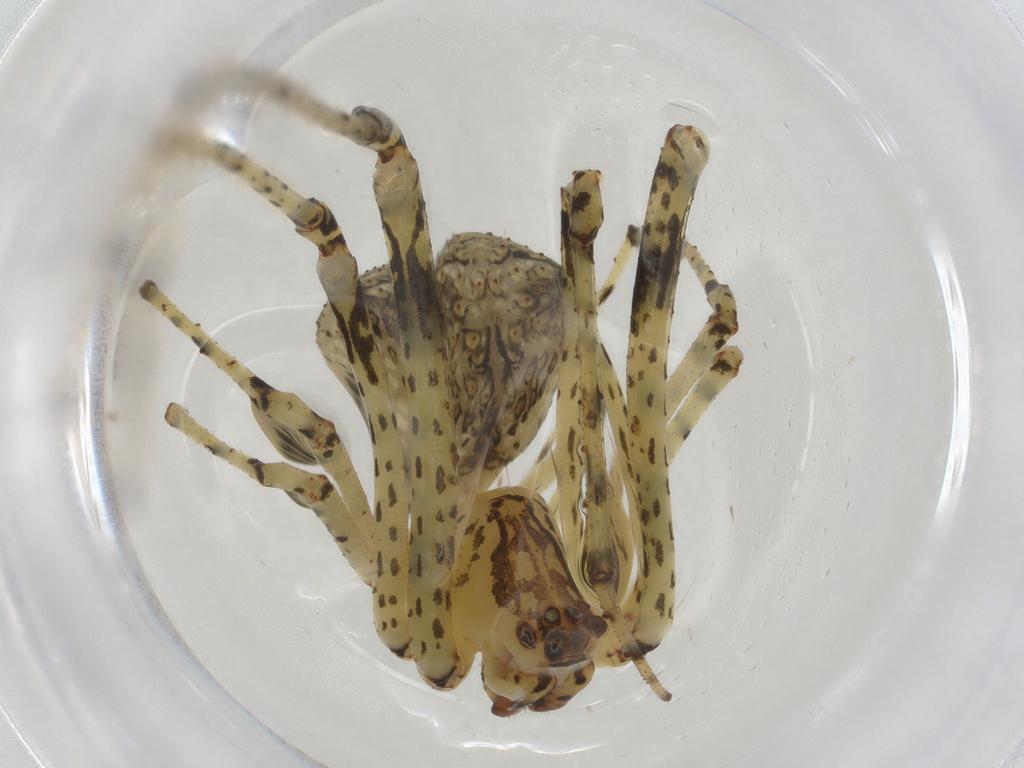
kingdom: Animalia
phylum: Arthropoda
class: Arachnida
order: Araneae
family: Mimetidae
